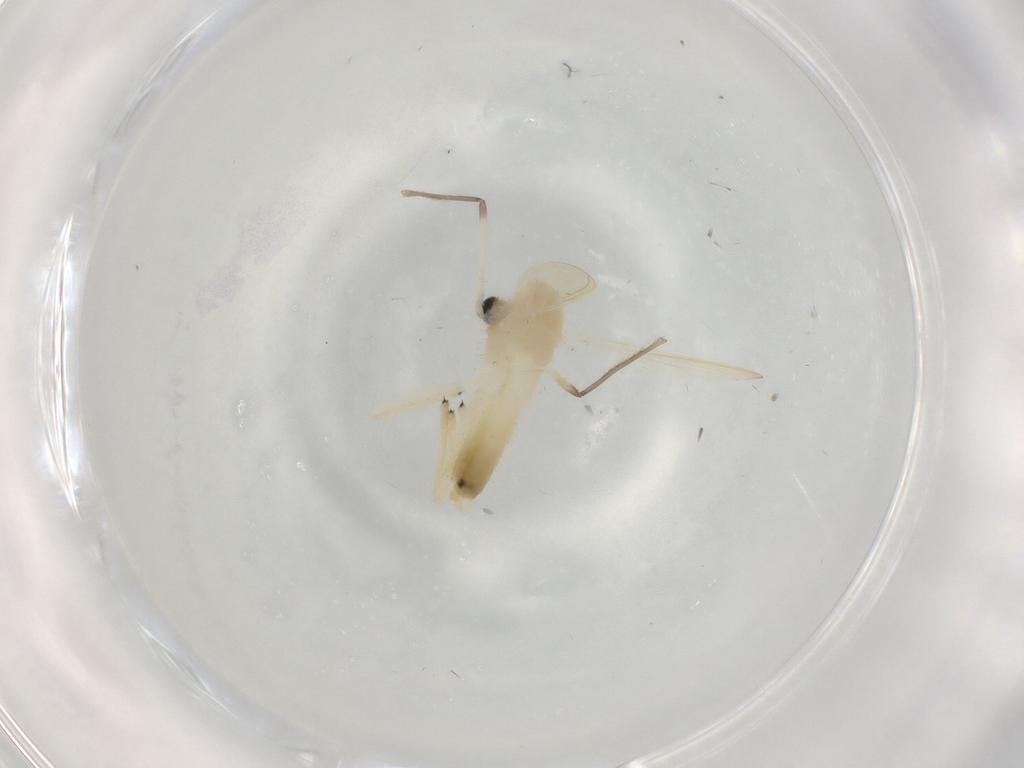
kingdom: Animalia
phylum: Arthropoda
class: Insecta
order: Diptera
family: Chironomidae
